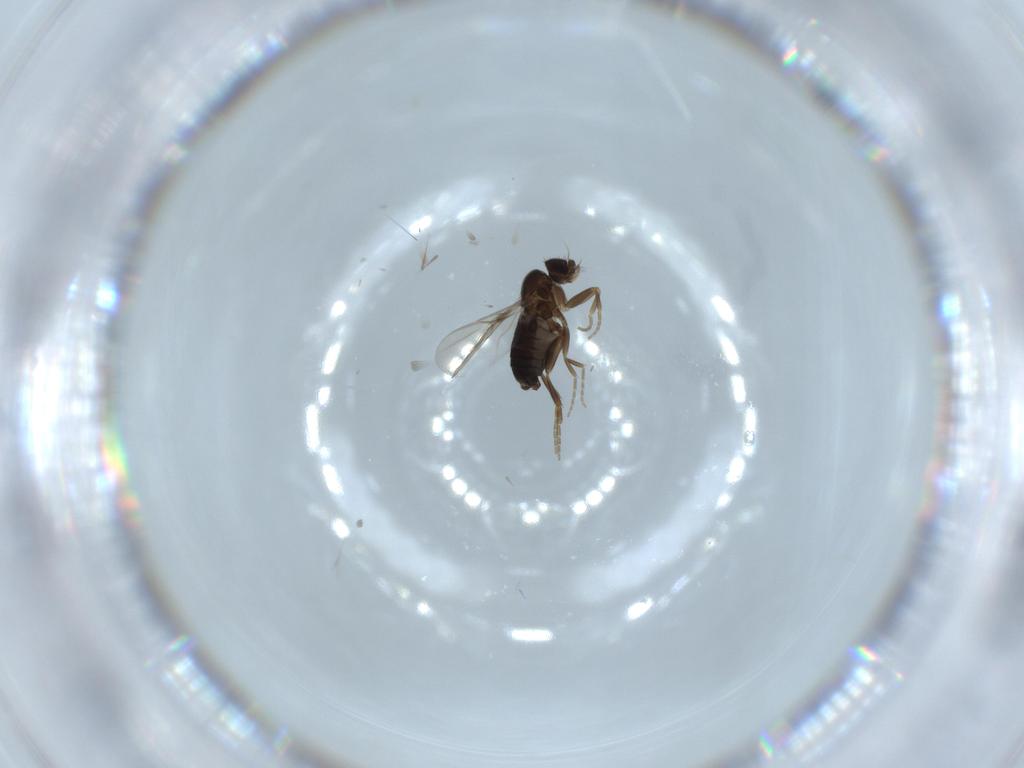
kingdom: Animalia
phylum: Arthropoda
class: Insecta
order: Diptera
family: Phoridae
